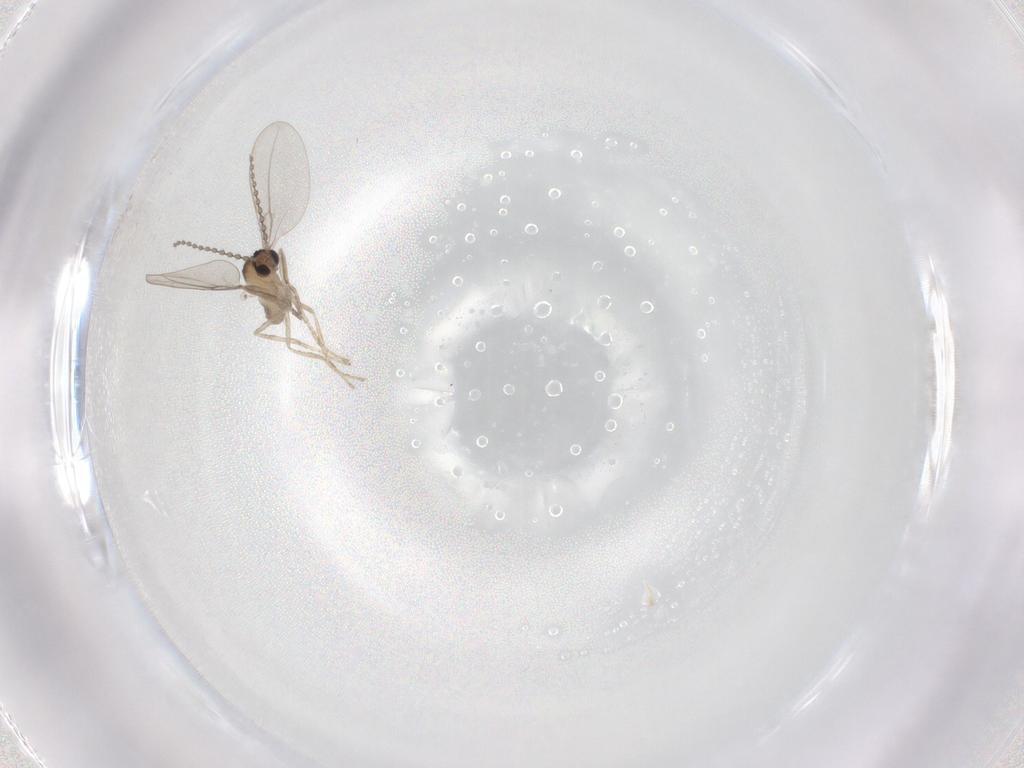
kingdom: Animalia
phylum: Arthropoda
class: Insecta
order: Diptera
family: Cecidomyiidae
